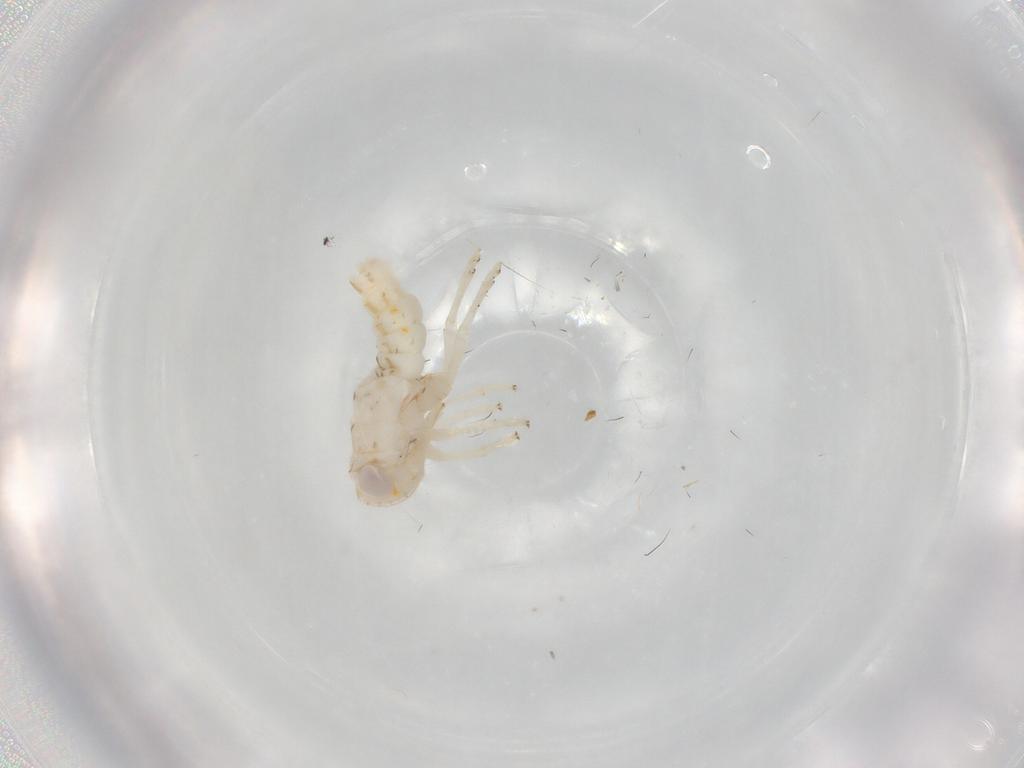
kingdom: Animalia
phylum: Arthropoda
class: Insecta
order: Hemiptera
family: Nogodinidae
